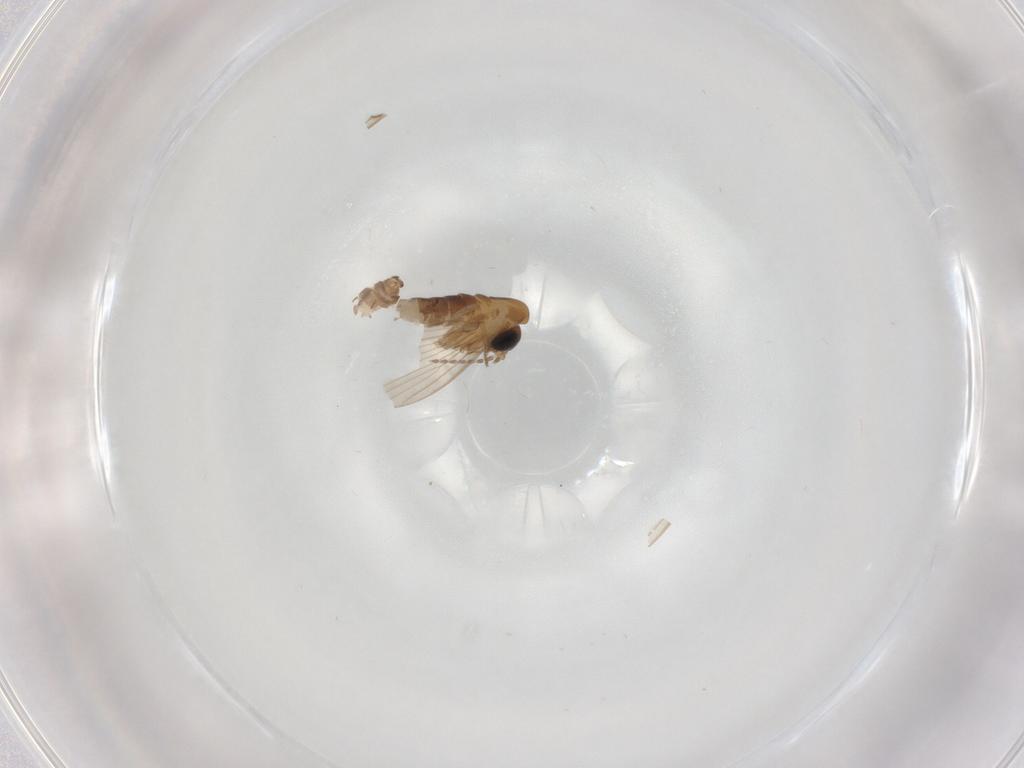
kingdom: Animalia
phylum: Arthropoda
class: Insecta
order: Diptera
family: Ceratopogonidae
